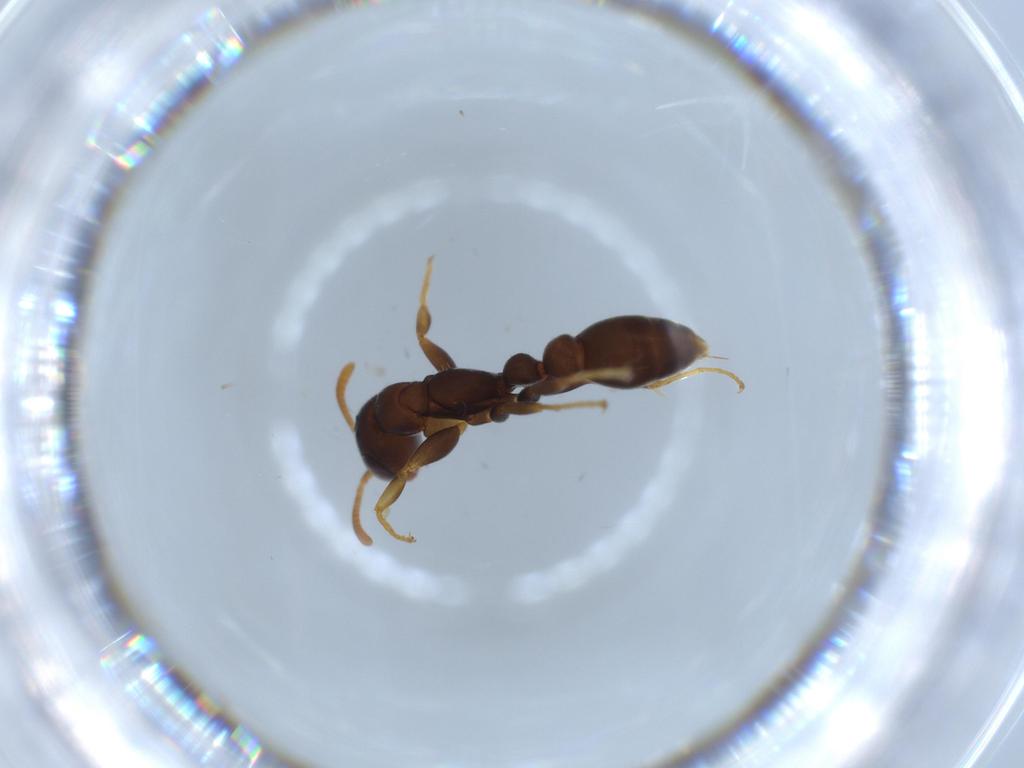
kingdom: Animalia
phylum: Arthropoda
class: Insecta
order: Hymenoptera
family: Formicidae
